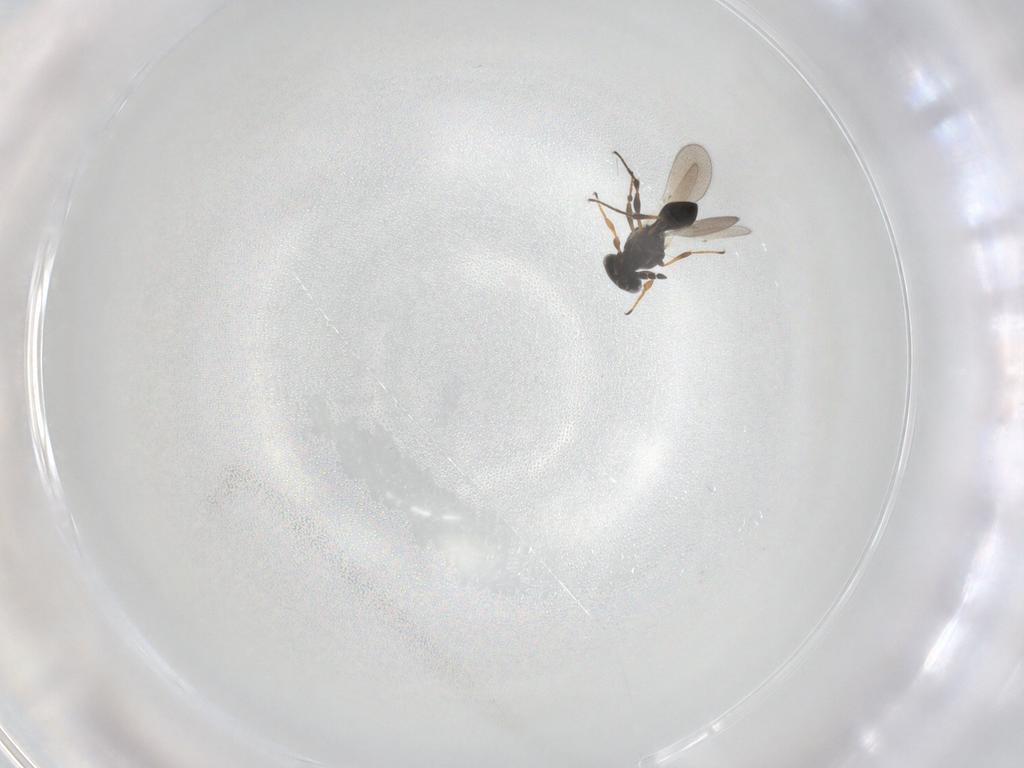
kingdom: Animalia
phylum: Arthropoda
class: Insecta
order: Hymenoptera
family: Platygastridae
